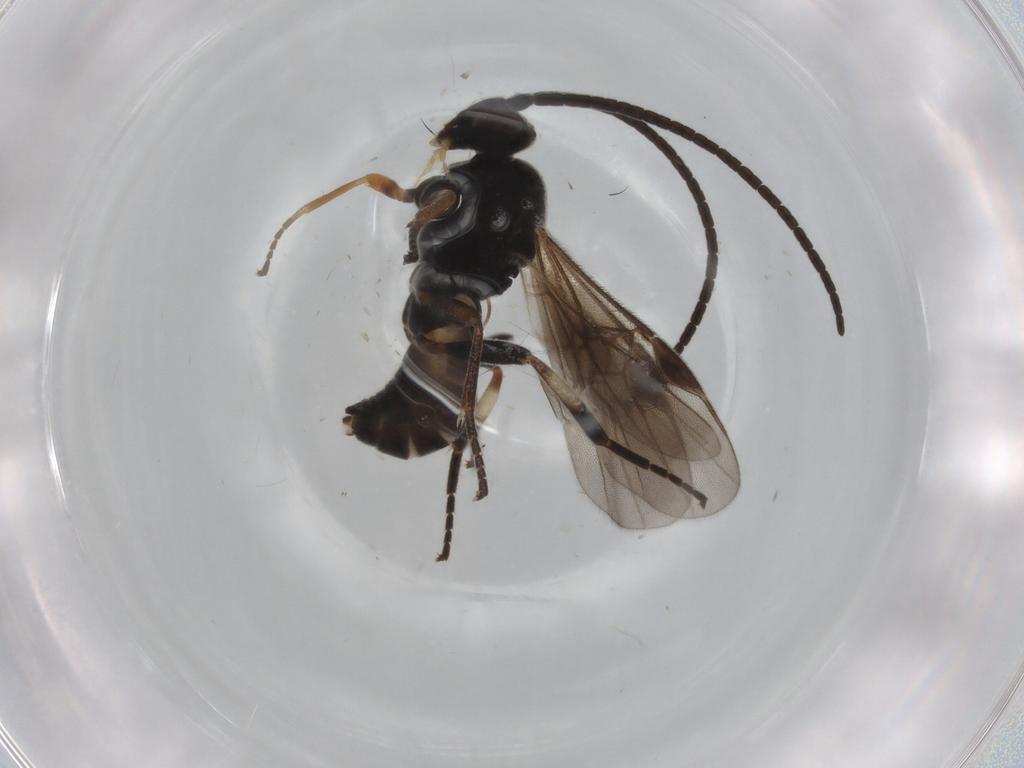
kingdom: Animalia
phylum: Arthropoda
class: Insecta
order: Hymenoptera
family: Braconidae
